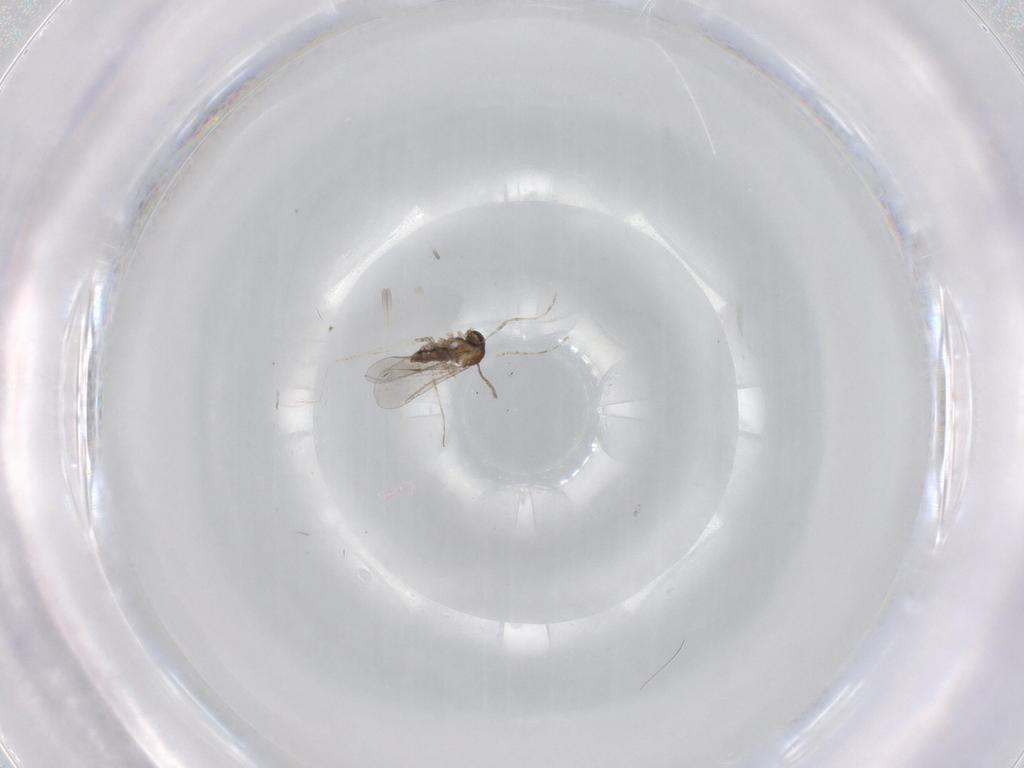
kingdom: Animalia
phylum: Arthropoda
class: Insecta
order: Diptera
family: Cecidomyiidae
